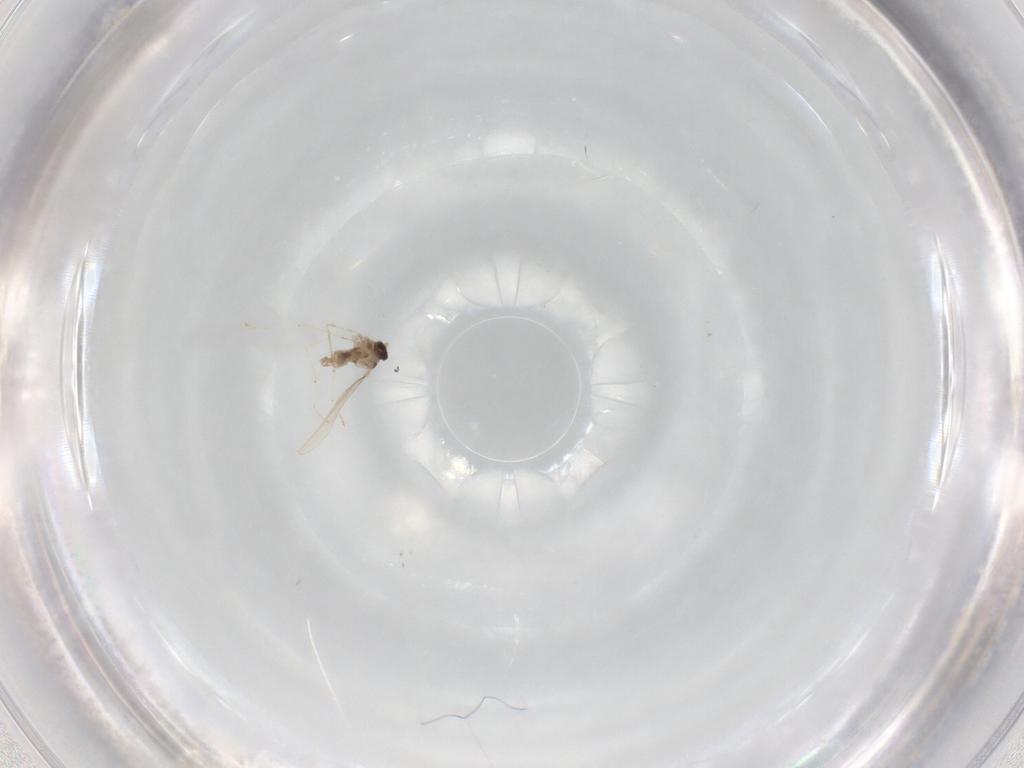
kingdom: Animalia
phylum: Arthropoda
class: Insecta
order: Diptera
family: Cecidomyiidae
